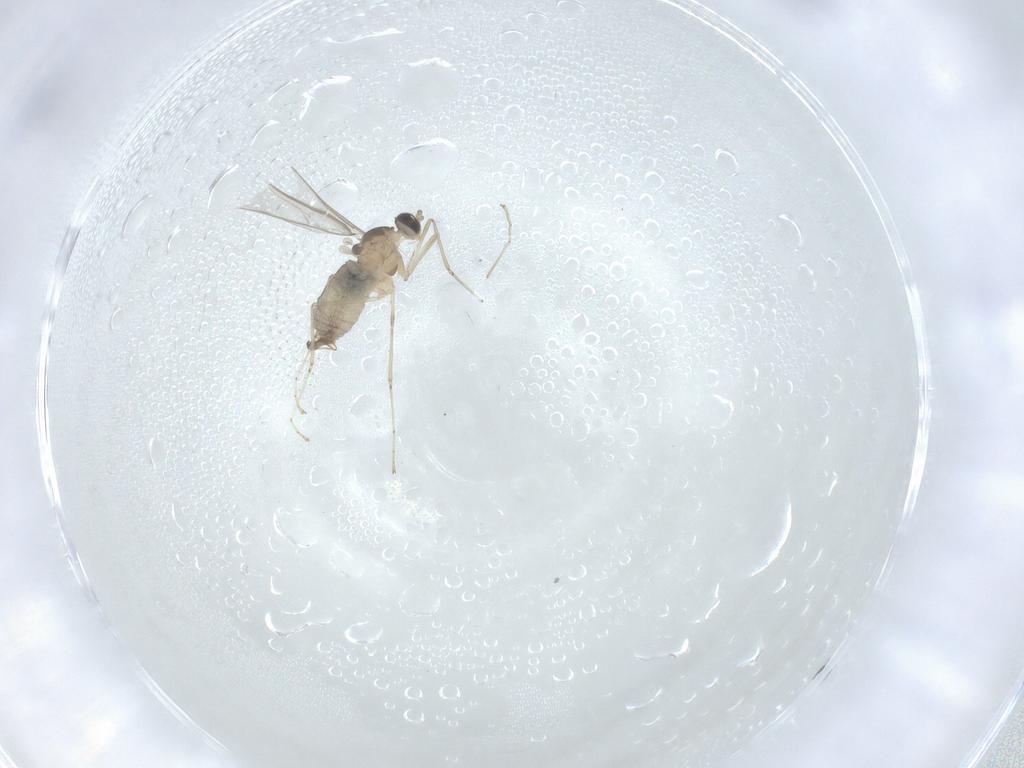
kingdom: Animalia
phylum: Arthropoda
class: Insecta
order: Diptera
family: Cecidomyiidae
